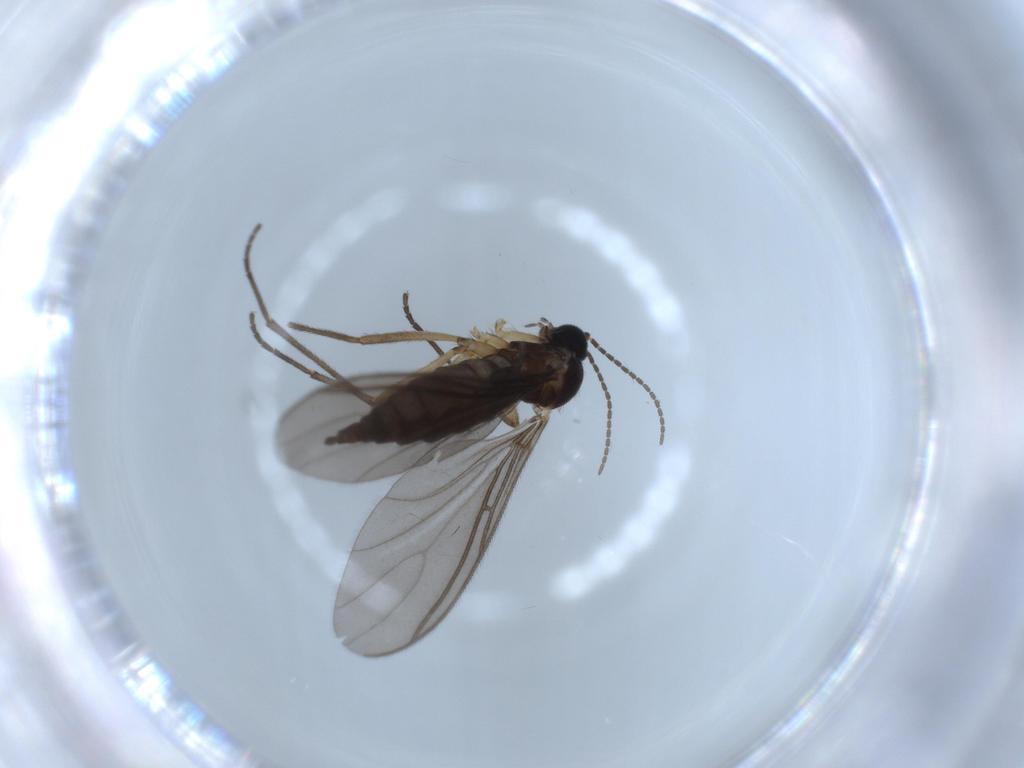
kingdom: Animalia
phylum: Arthropoda
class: Insecta
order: Diptera
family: Sciaridae
